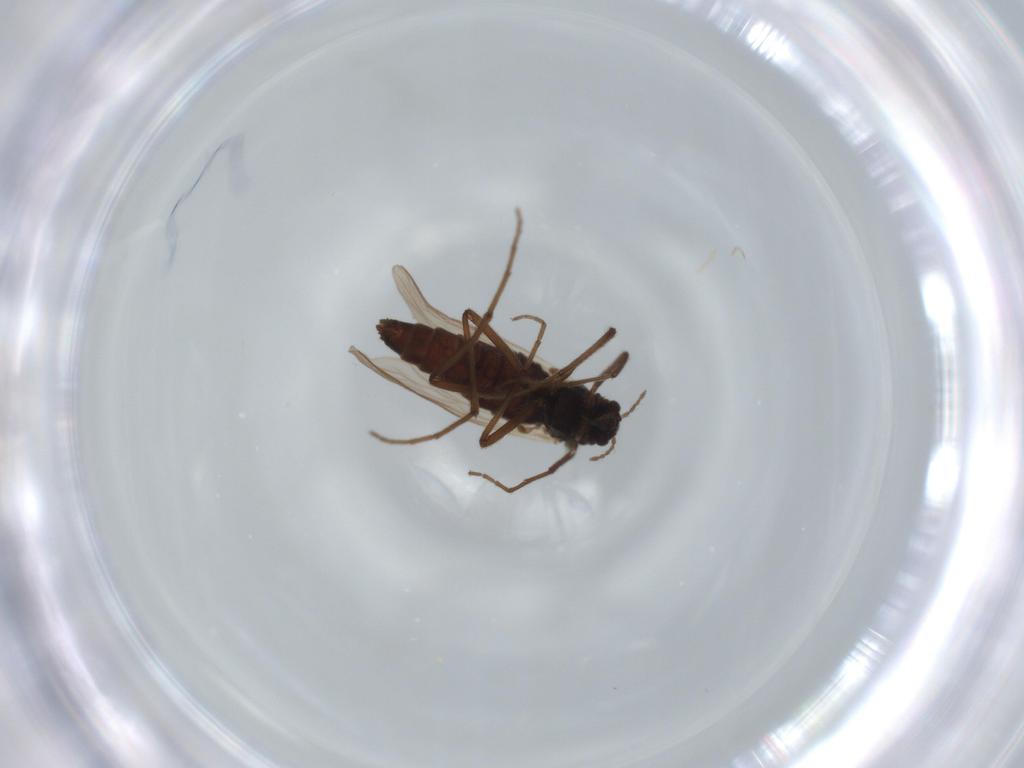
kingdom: Animalia
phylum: Arthropoda
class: Insecta
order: Diptera
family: Chironomidae
